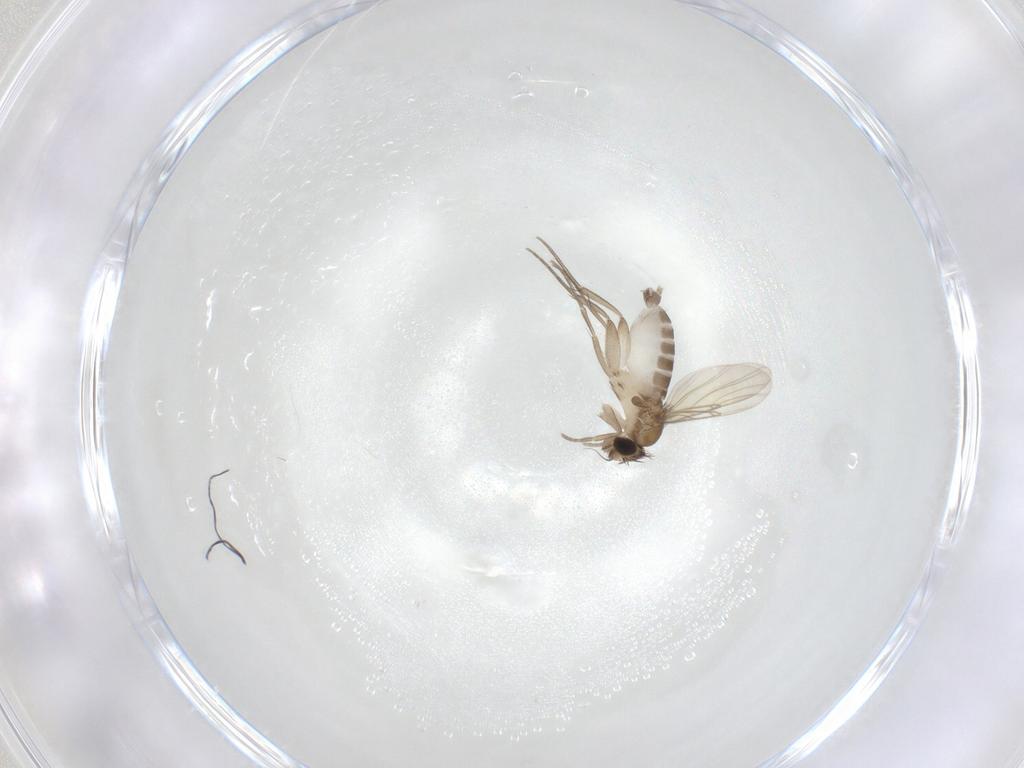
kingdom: Animalia
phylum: Arthropoda
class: Insecta
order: Diptera
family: Phoridae
